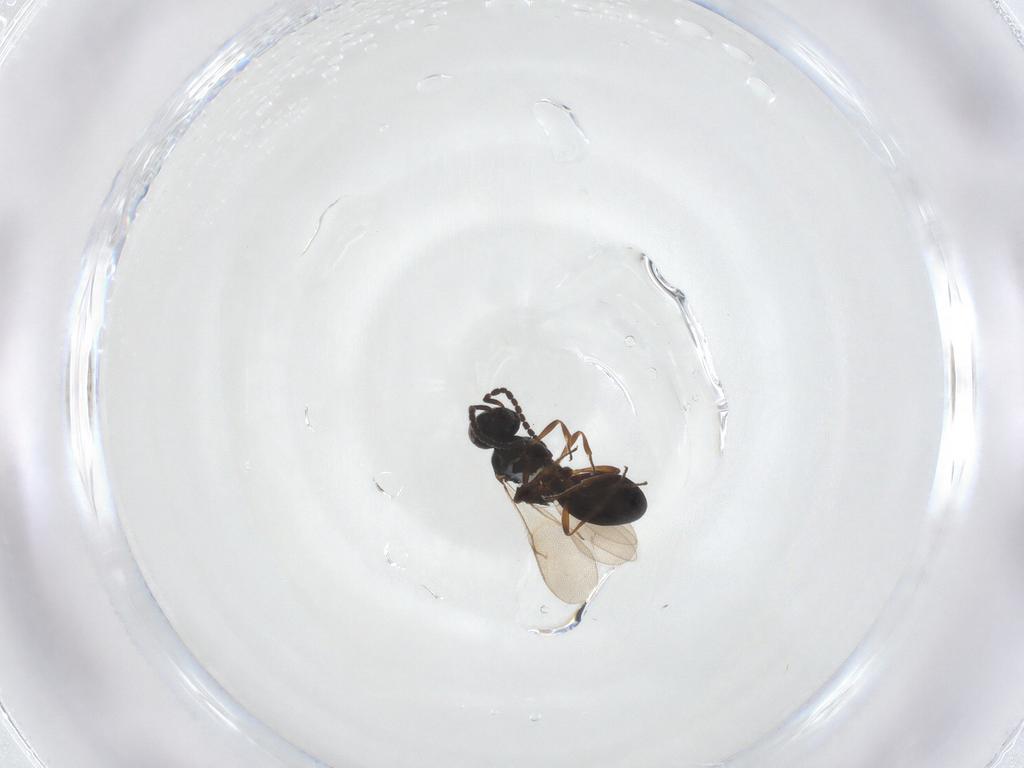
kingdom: Animalia
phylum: Arthropoda
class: Insecta
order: Hymenoptera
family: Scelionidae
